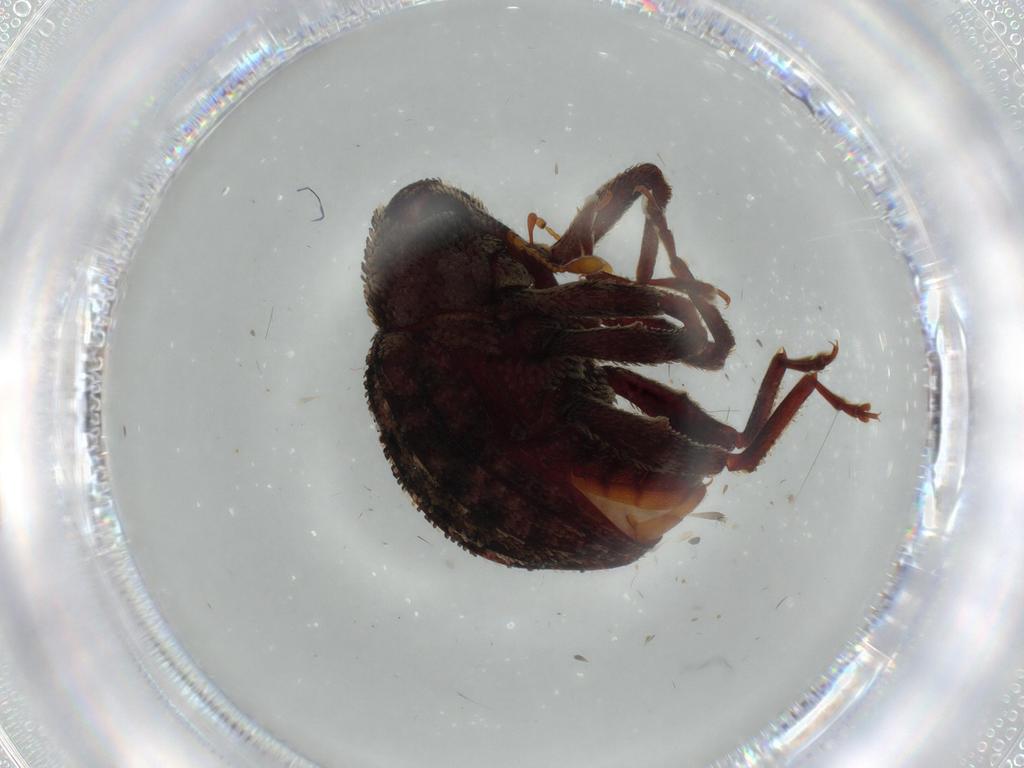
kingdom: Animalia
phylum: Arthropoda
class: Insecta
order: Coleoptera
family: Curculionidae
